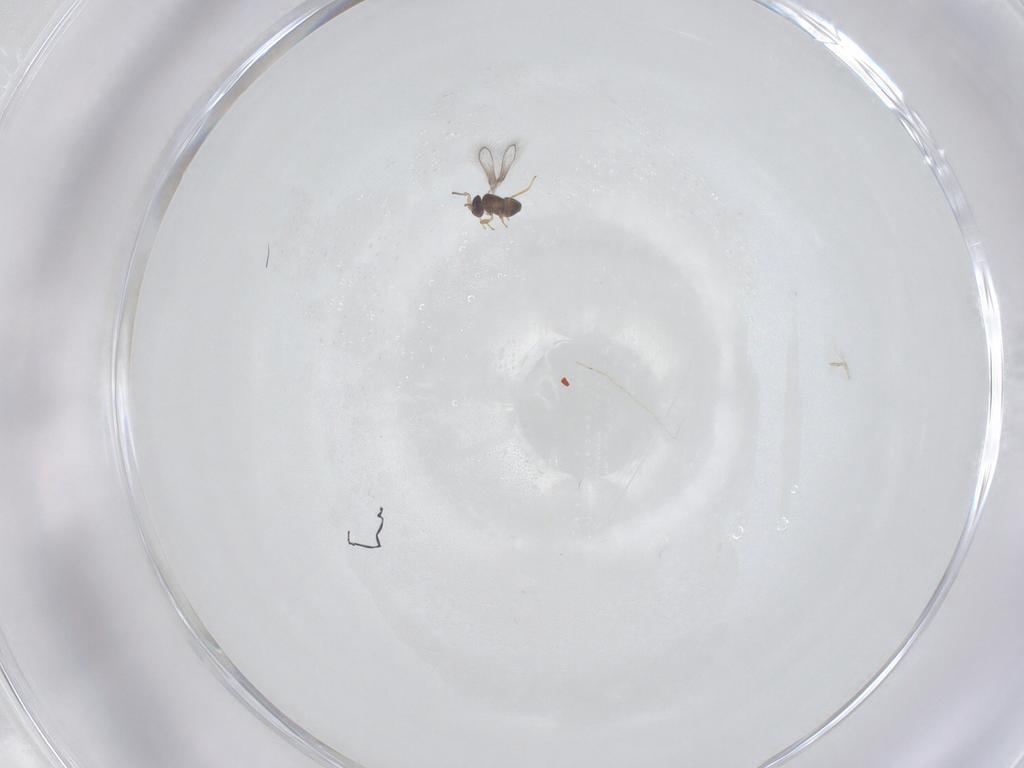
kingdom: Animalia
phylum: Arthropoda
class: Insecta
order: Hymenoptera
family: Mymaridae
